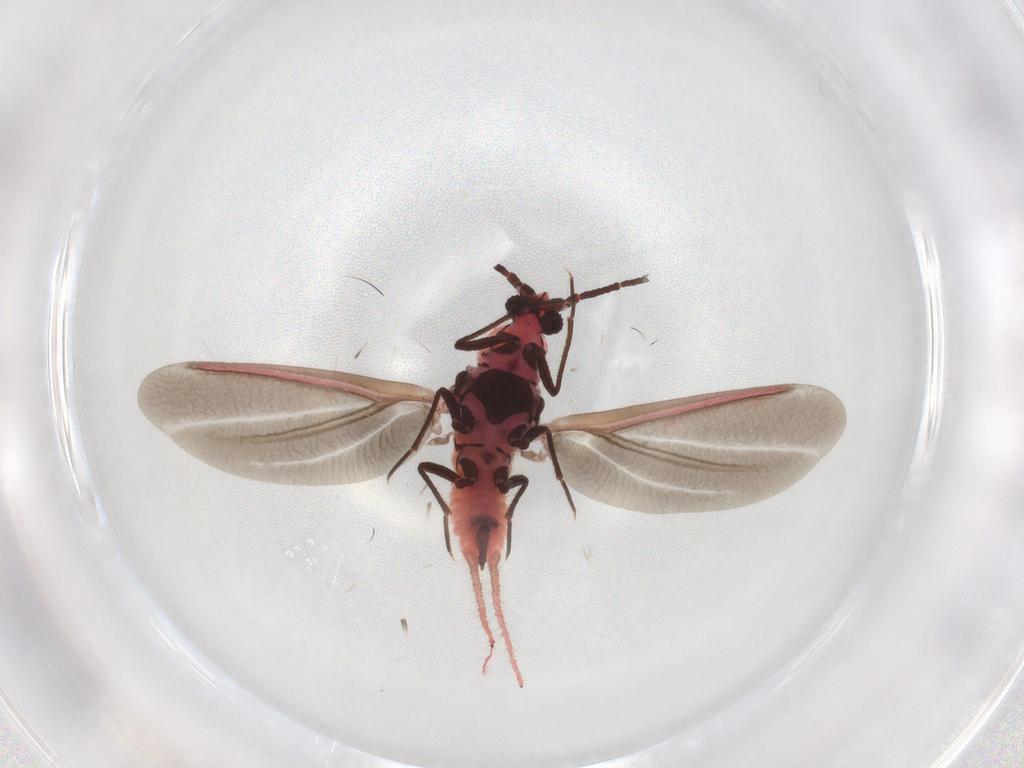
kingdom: Animalia
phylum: Arthropoda
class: Insecta
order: Hemiptera
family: Monophlebidae
